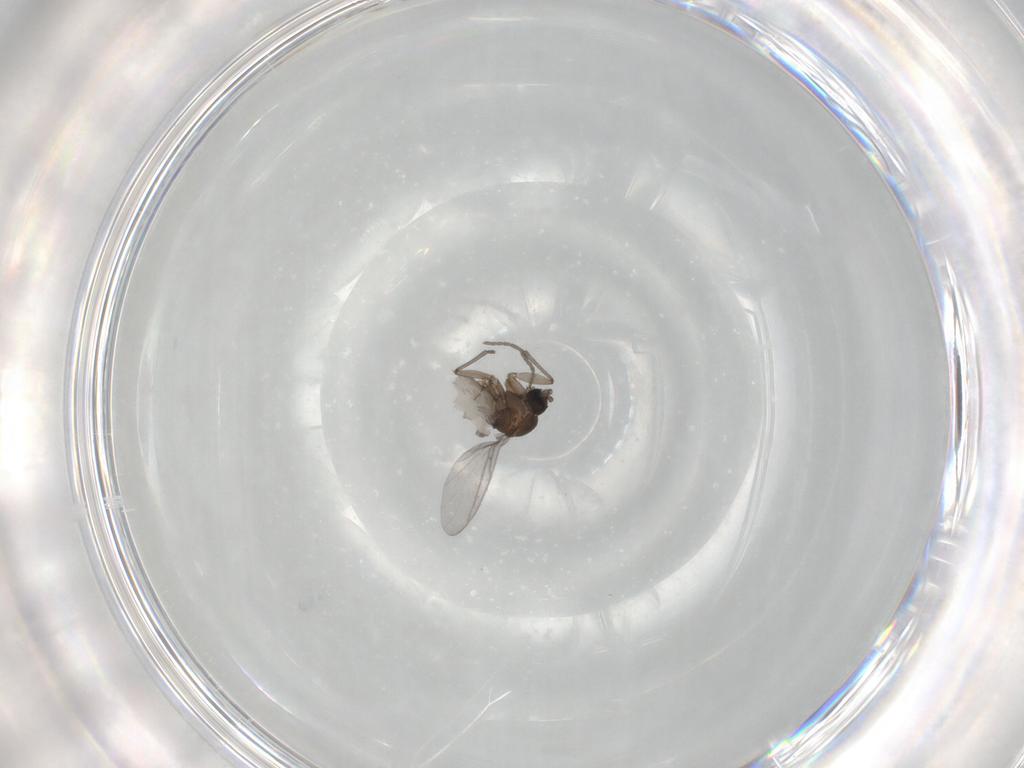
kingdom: Animalia
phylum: Arthropoda
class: Insecta
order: Diptera
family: Sciaridae
